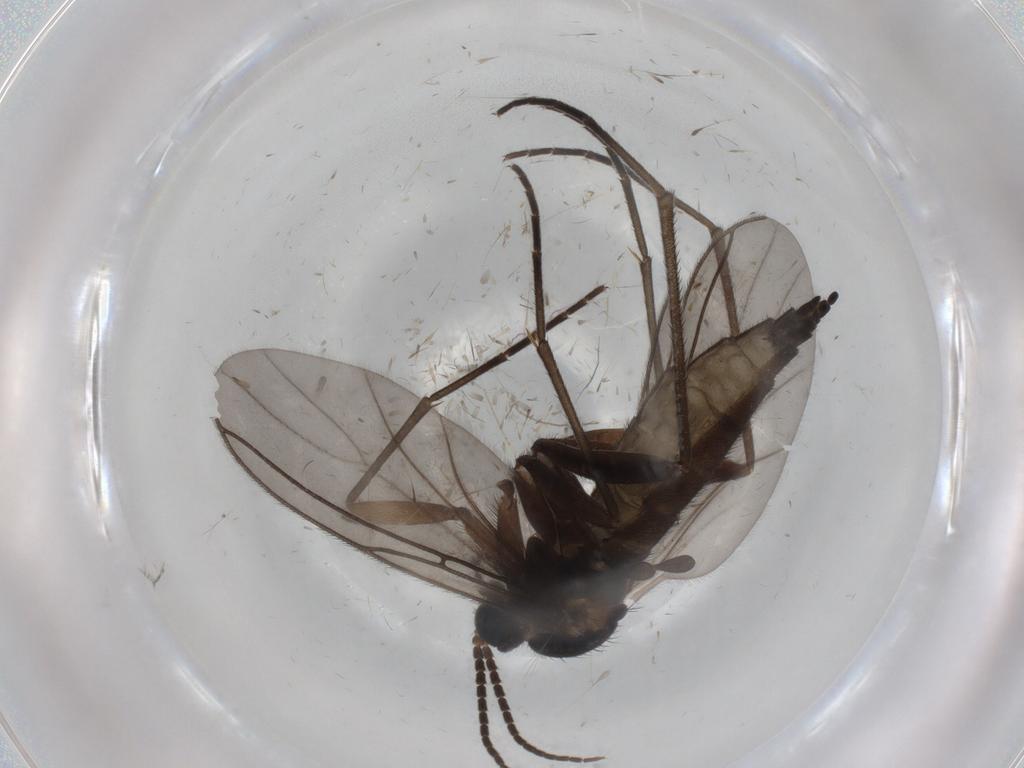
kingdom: Animalia
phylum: Arthropoda
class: Insecta
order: Diptera
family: Sciaridae
